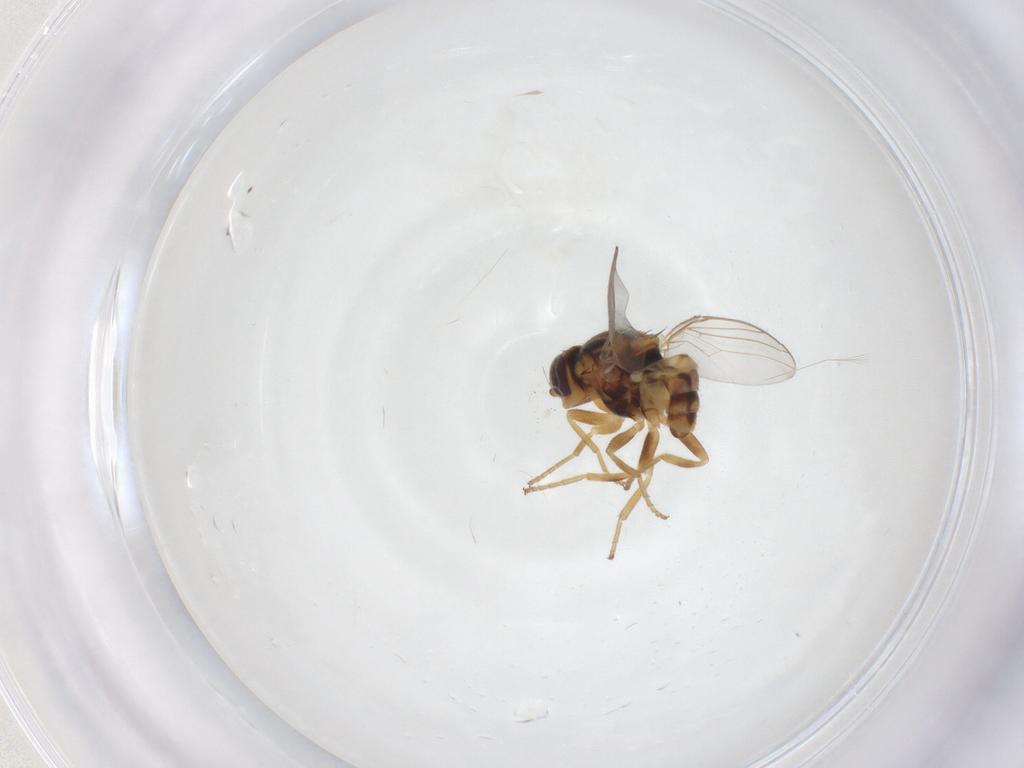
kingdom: Animalia
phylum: Arthropoda
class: Insecta
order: Diptera
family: Chloropidae
